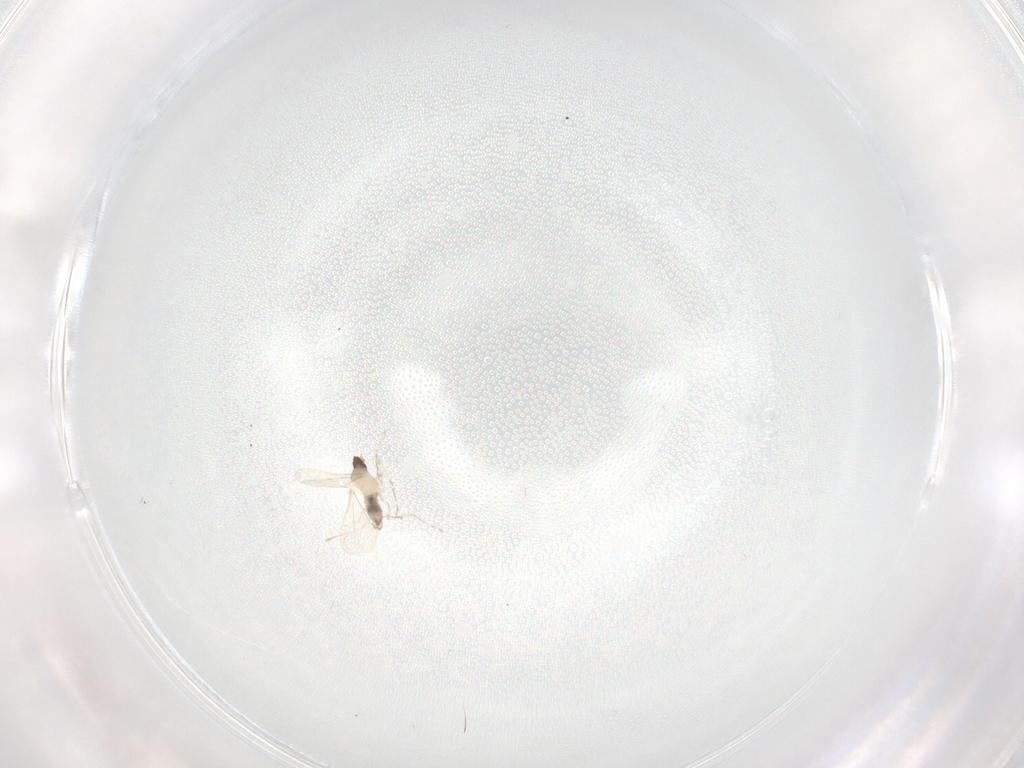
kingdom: Animalia
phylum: Arthropoda
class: Insecta
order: Diptera
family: Cecidomyiidae
